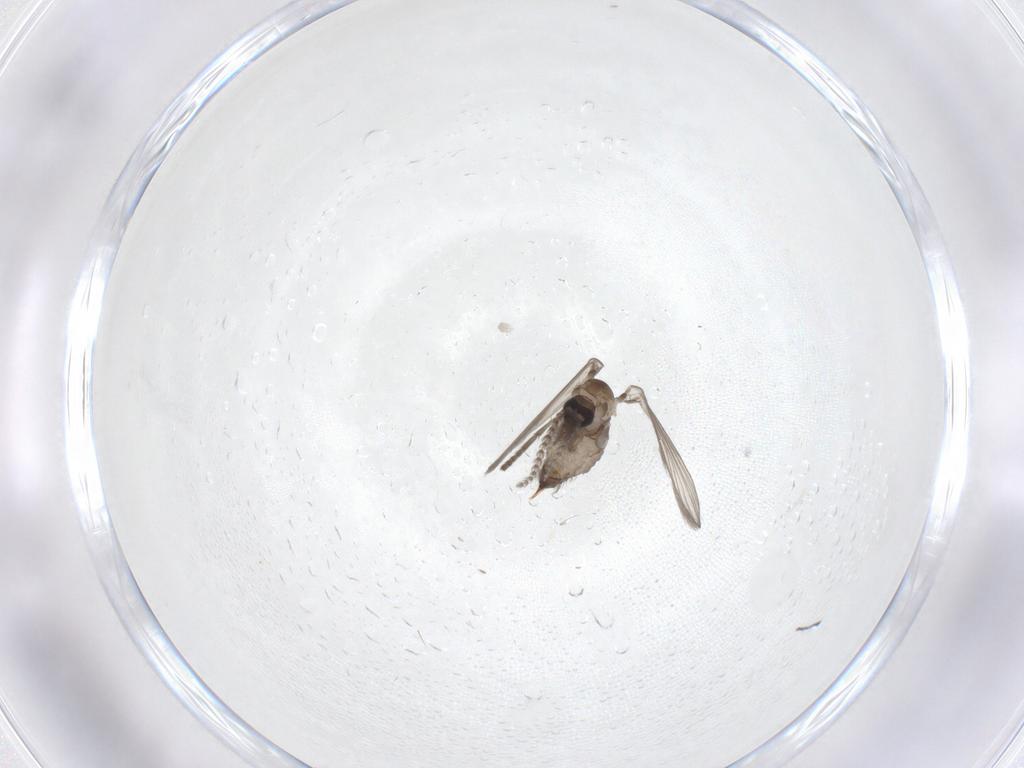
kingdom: Animalia
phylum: Arthropoda
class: Insecta
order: Diptera
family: Psychodidae
